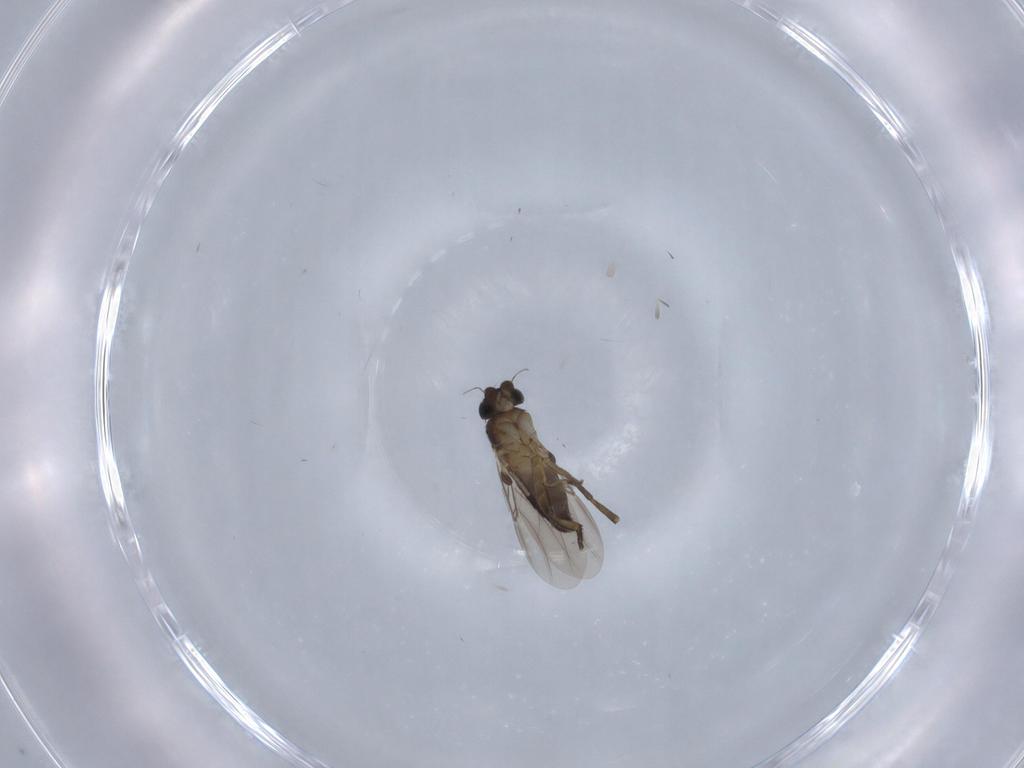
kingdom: Animalia
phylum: Arthropoda
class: Insecta
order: Diptera
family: Phoridae
